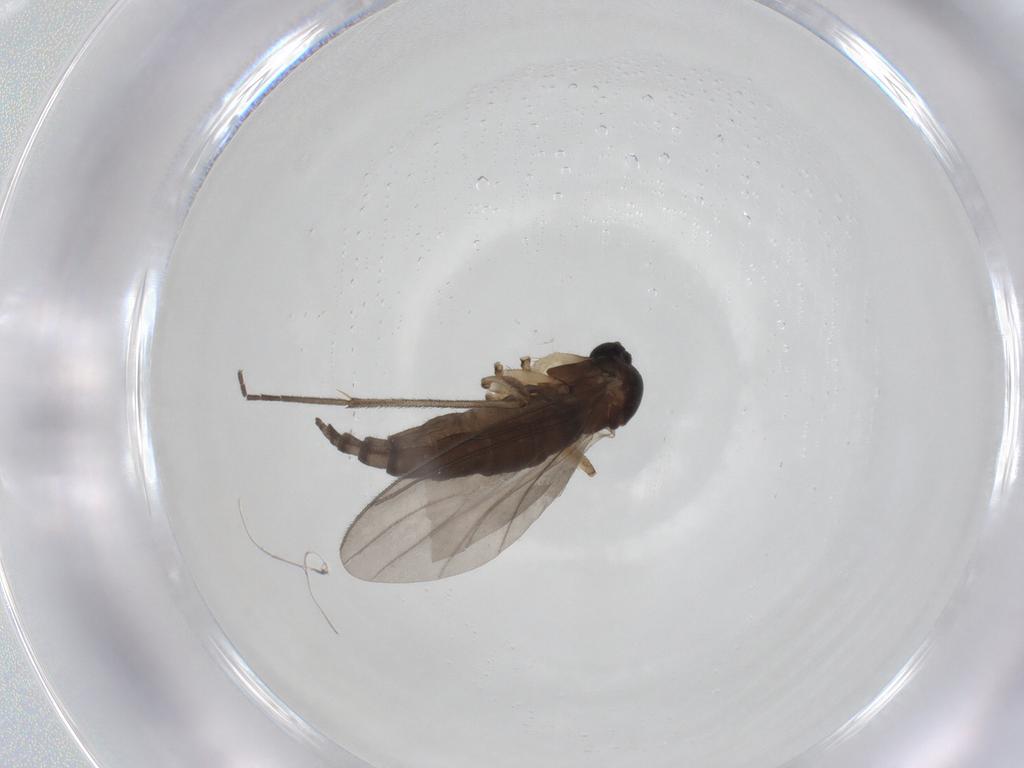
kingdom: Animalia
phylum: Arthropoda
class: Insecta
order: Diptera
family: Sciaridae
